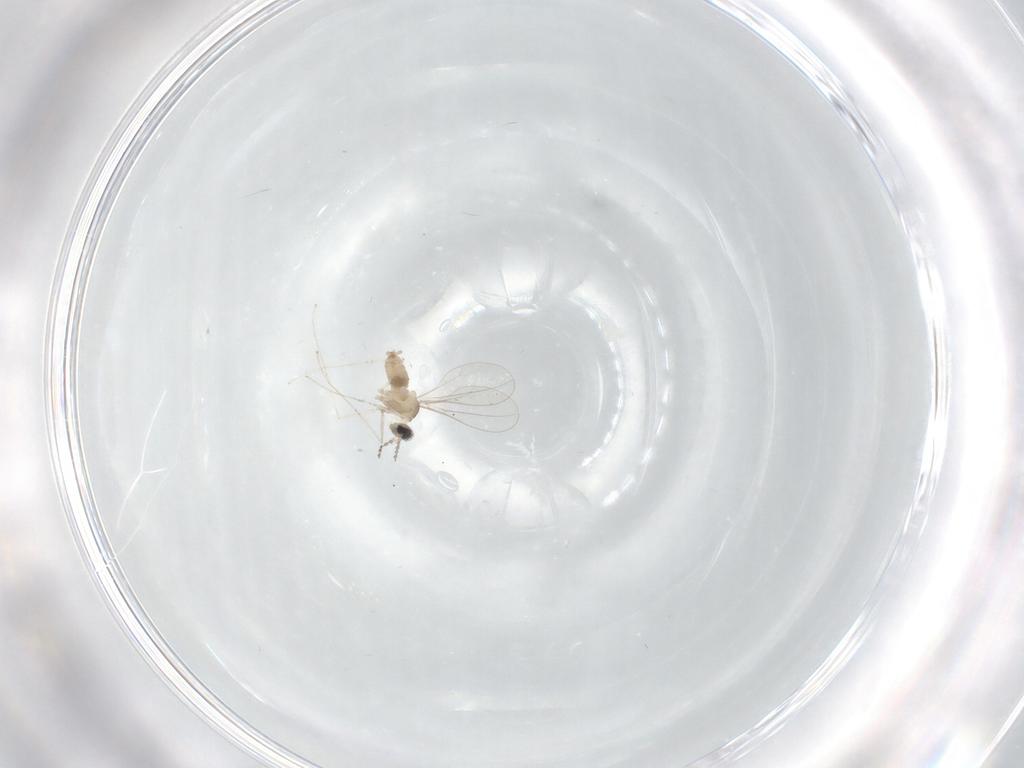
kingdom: Animalia
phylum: Arthropoda
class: Insecta
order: Diptera
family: Cecidomyiidae
